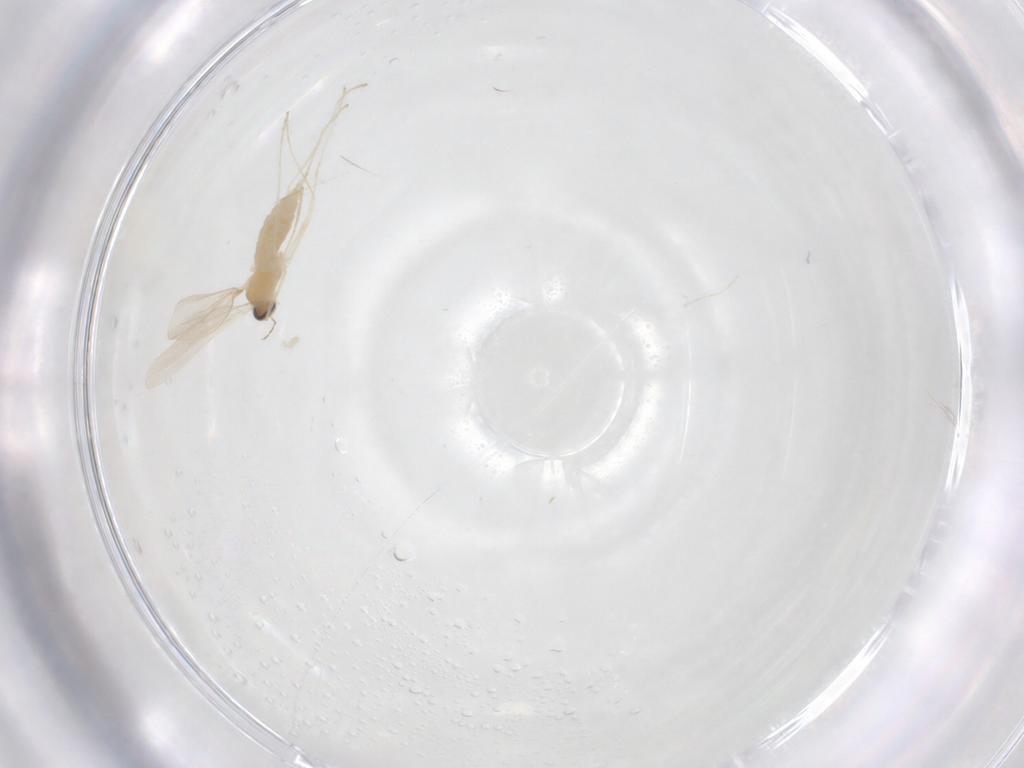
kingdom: Animalia
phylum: Arthropoda
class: Insecta
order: Diptera
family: Cecidomyiidae
